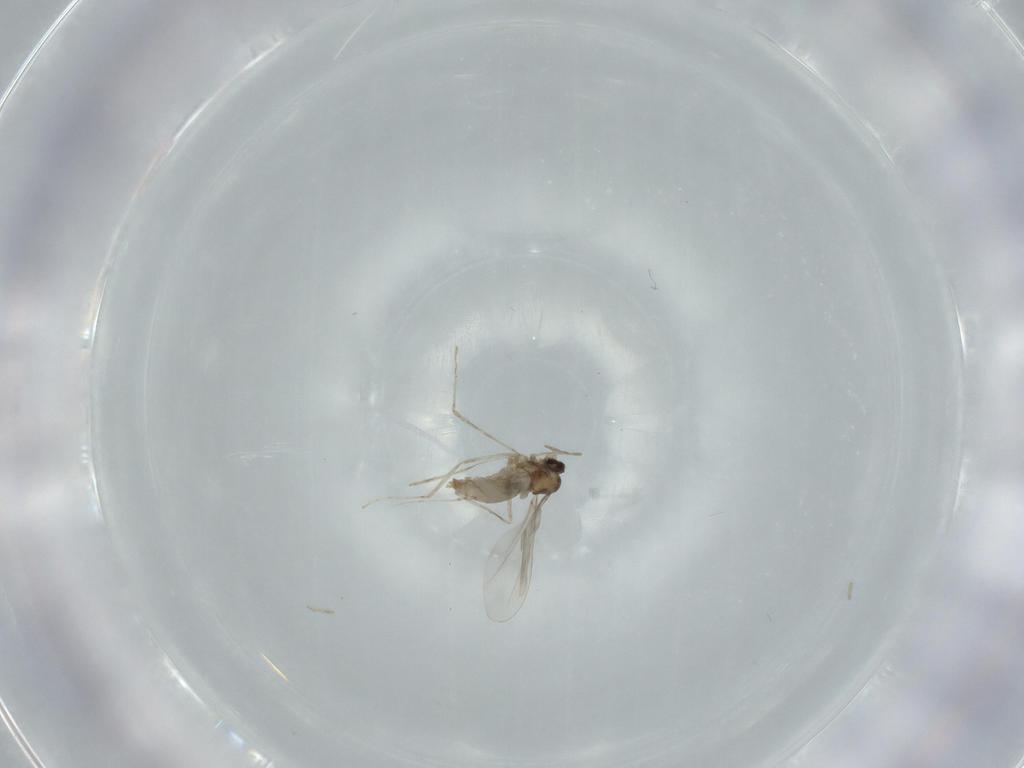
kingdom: Animalia
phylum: Arthropoda
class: Insecta
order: Diptera
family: Cecidomyiidae
